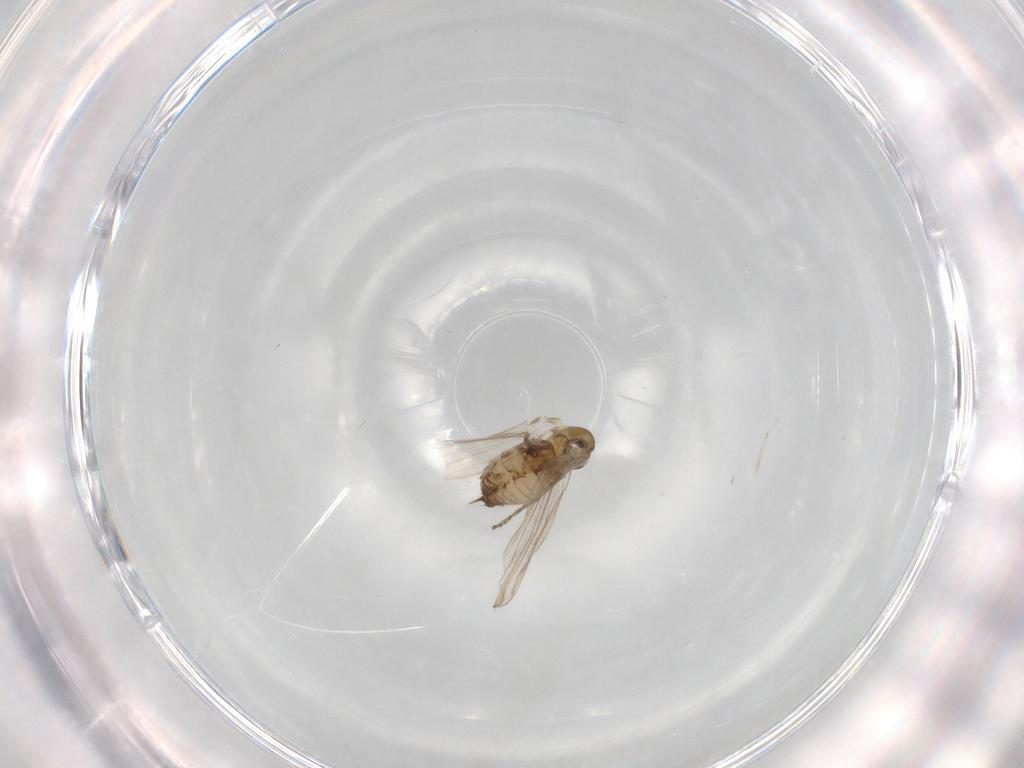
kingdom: Animalia
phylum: Arthropoda
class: Insecta
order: Diptera
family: Psychodidae
